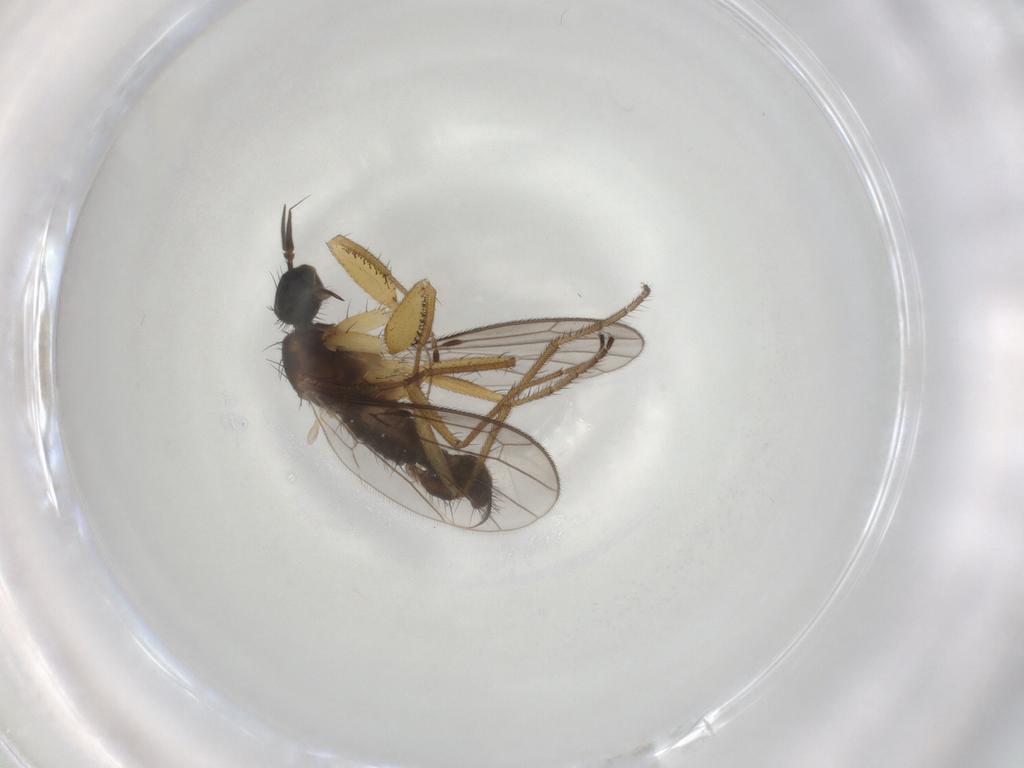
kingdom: Animalia
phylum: Arthropoda
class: Insecta
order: Diptera
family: Empididae
